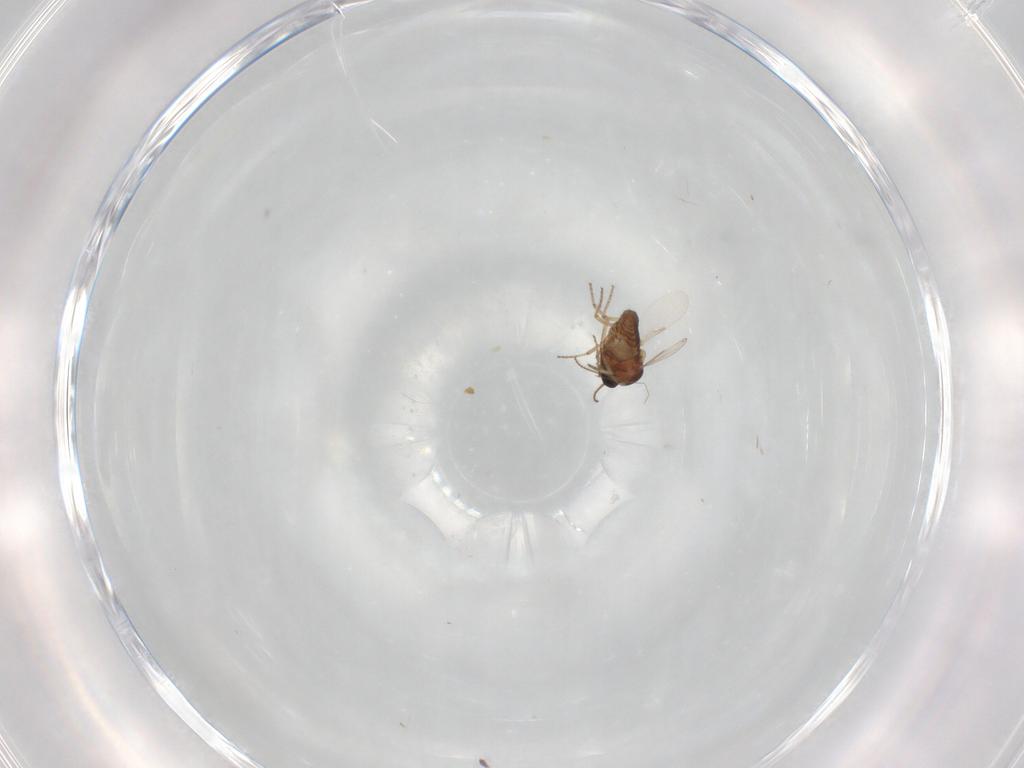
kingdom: Animalia
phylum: Arthropoda
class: Insecta
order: Diptera
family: Ceratopogonidae
